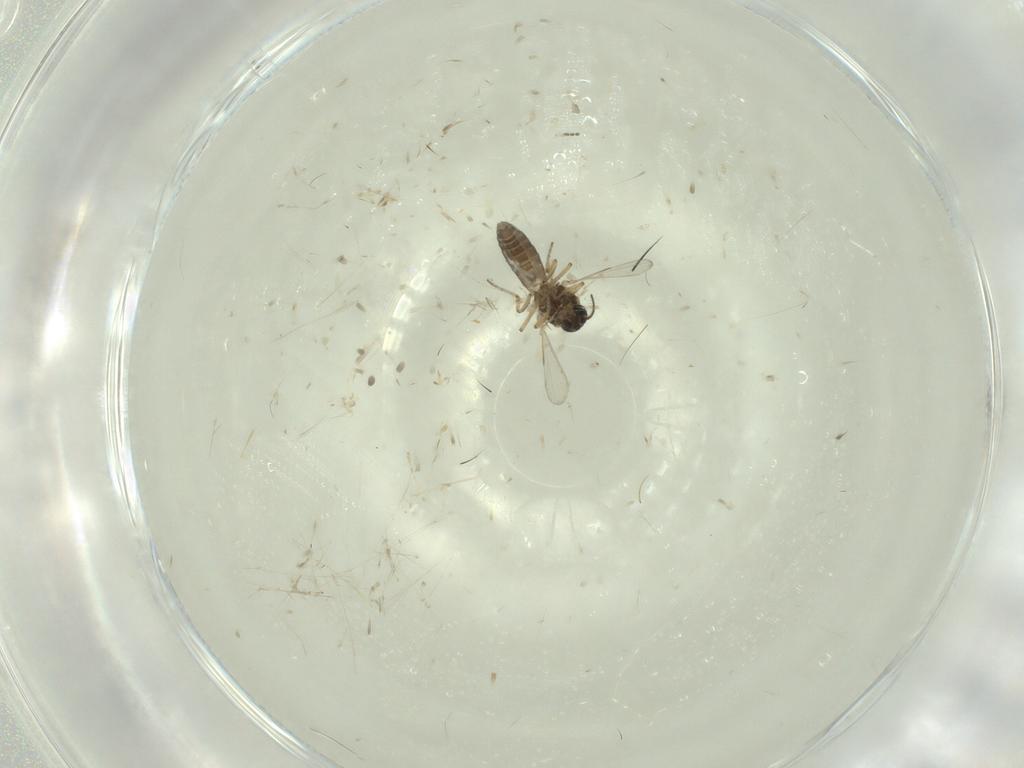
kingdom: Animalia
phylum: Arthropoda
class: Insecta
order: Diptera
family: Ceratopogonidae
